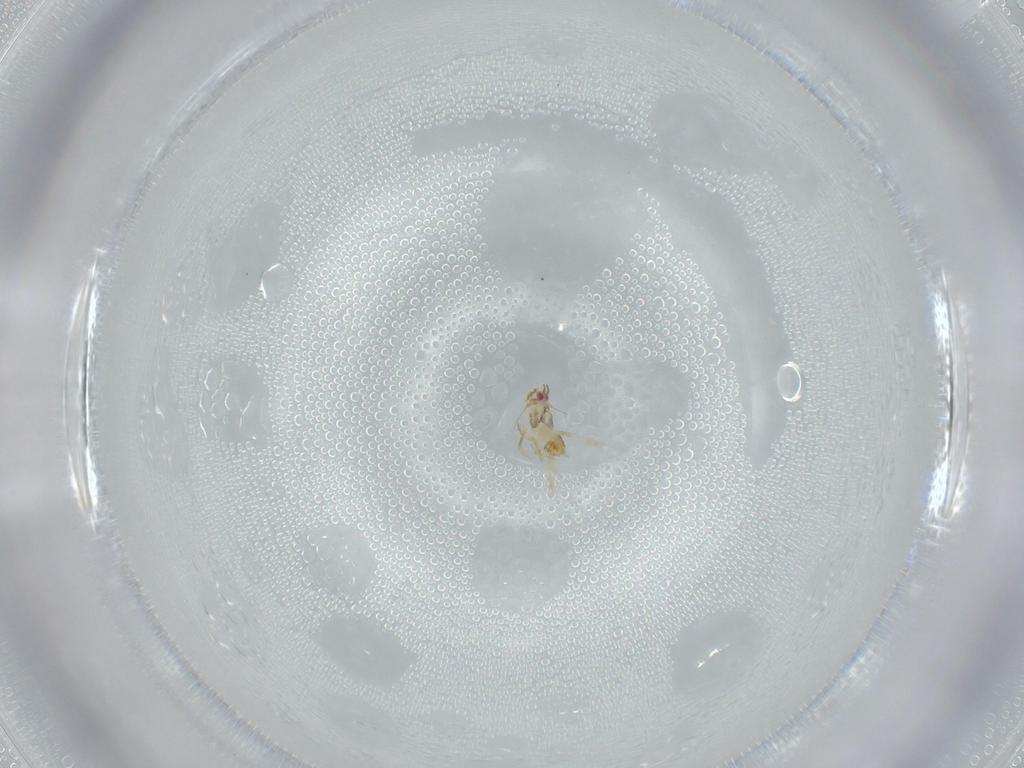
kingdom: Animalia
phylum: Arthropoda
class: Insecta
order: Hemiptera
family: Delphacidae
